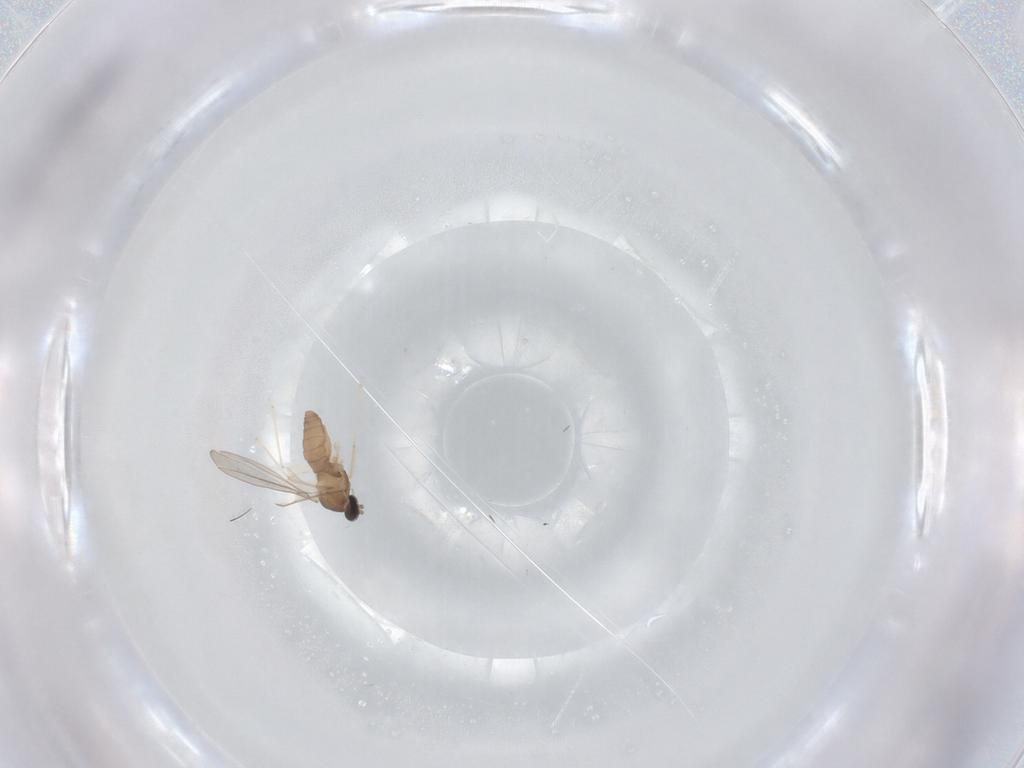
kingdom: Animalia
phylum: Arthropoda
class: Insecta
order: Diptera
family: Cecidomyiidae
